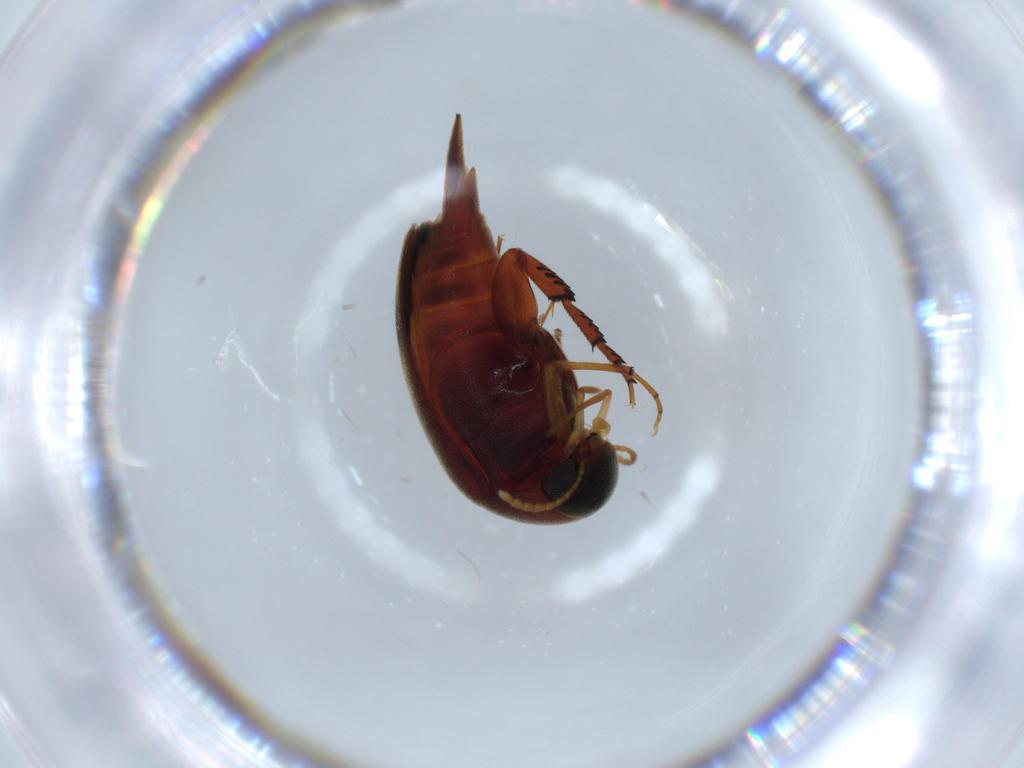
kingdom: Animalia
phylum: Arthropoda
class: Insecta
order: Coleoptera
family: Mordellidae
